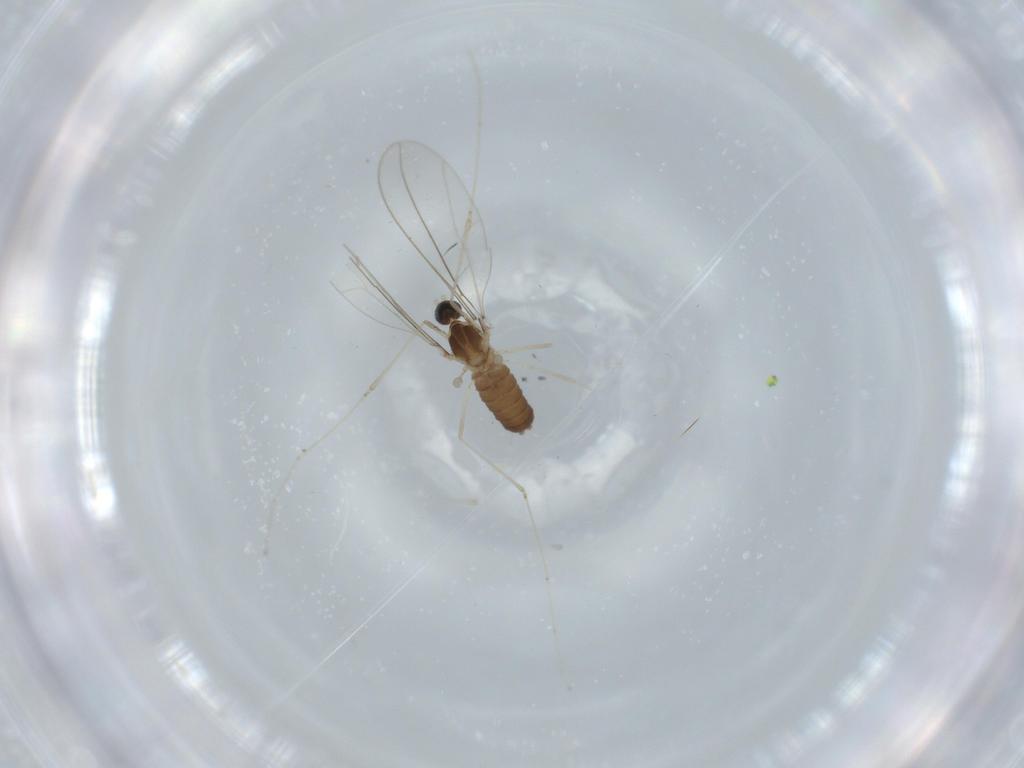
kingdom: Animalia
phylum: Arthropoda
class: Insecta
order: Diptera
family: Cecidomyiidae
